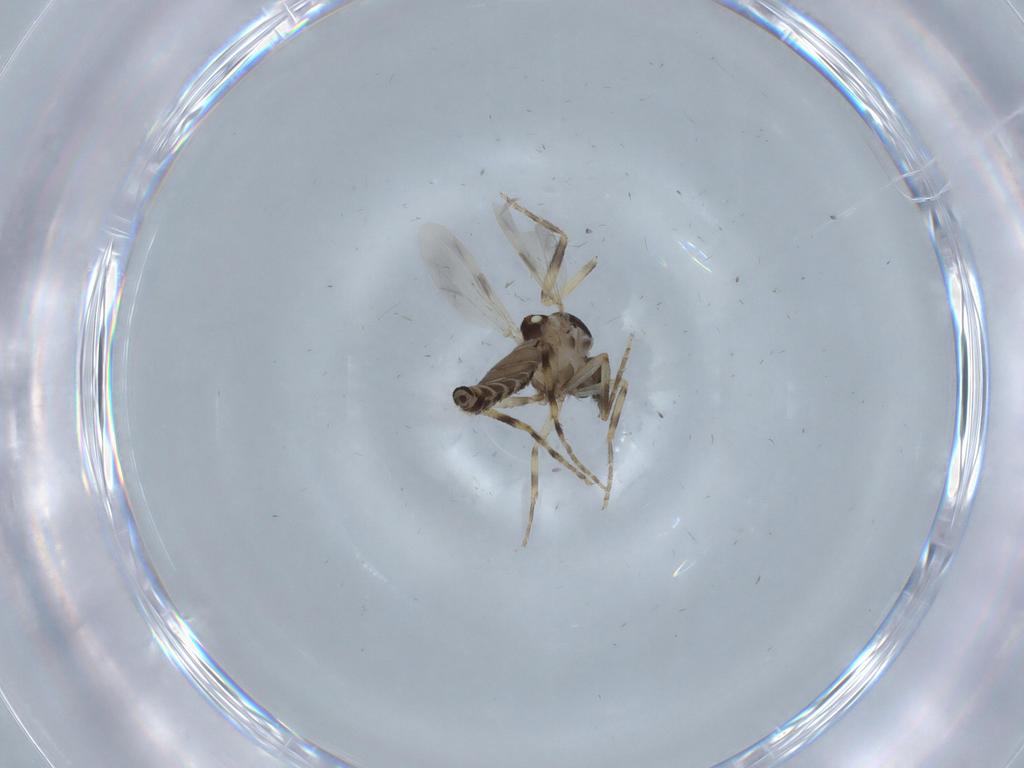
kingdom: Animalia
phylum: Arthropoda
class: Insecta
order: Diptera
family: Ceratopogonidae
